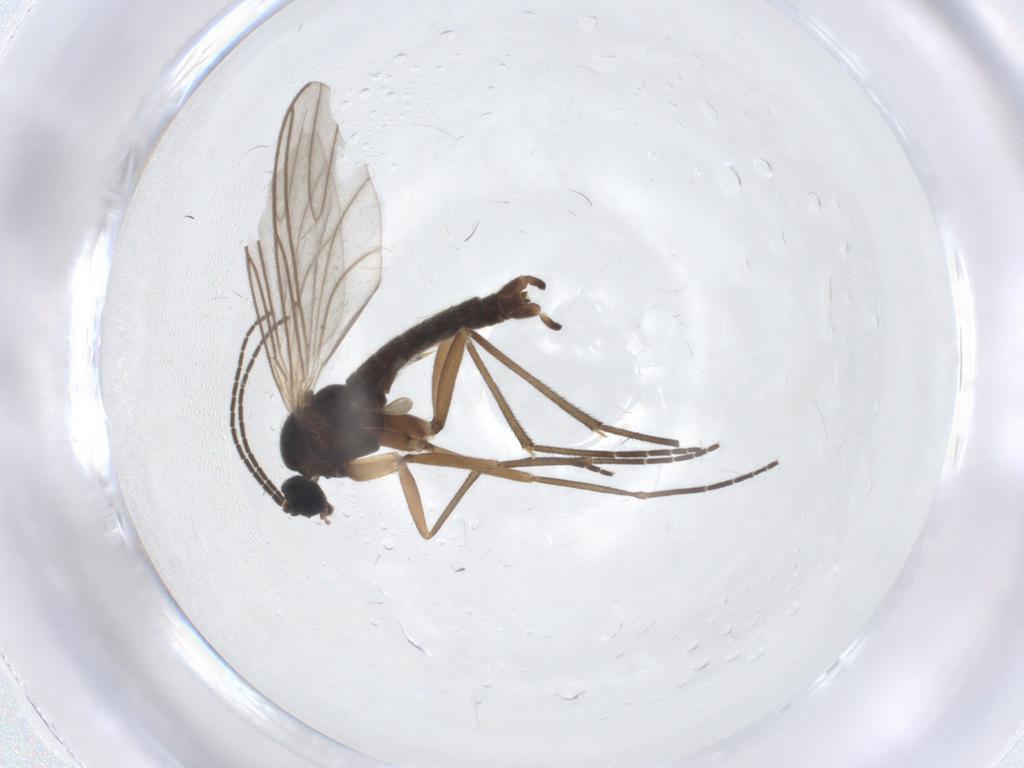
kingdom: Animalia
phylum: Arthropoda
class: Insecta
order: Diptera
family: Sciaridae
